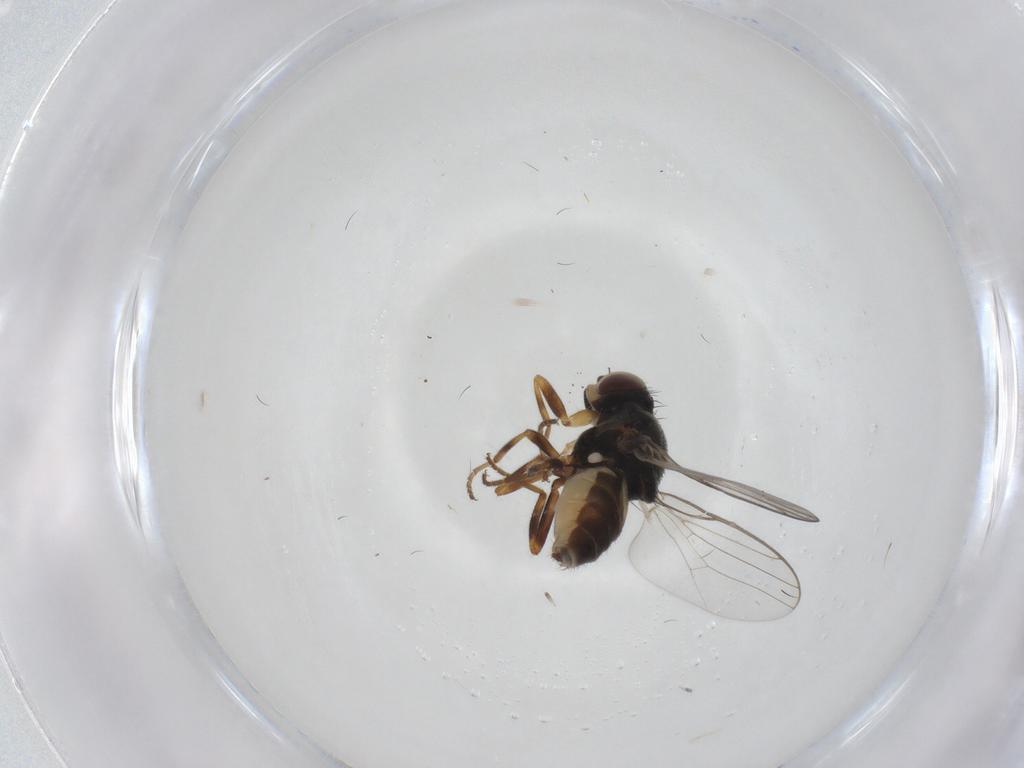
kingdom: Animalia
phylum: Arthropoda
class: Insecta
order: Diptera
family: Chloropidae
